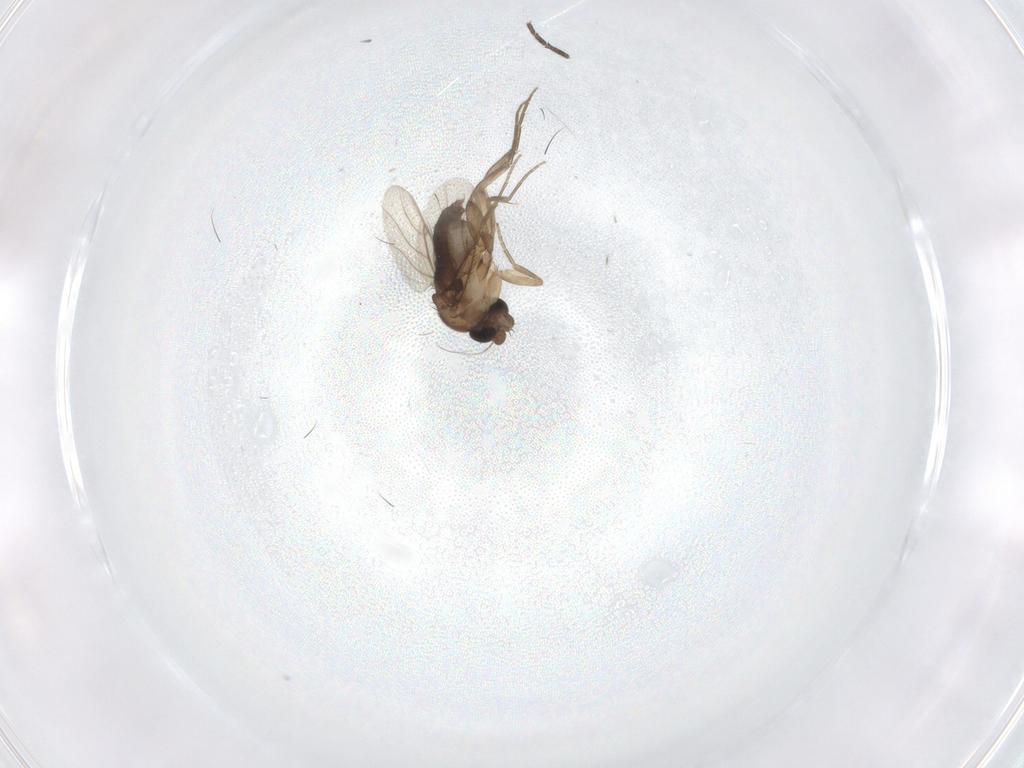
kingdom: Animalia
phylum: Arthropoda
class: Insecta
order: Diptera
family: Phoridae
